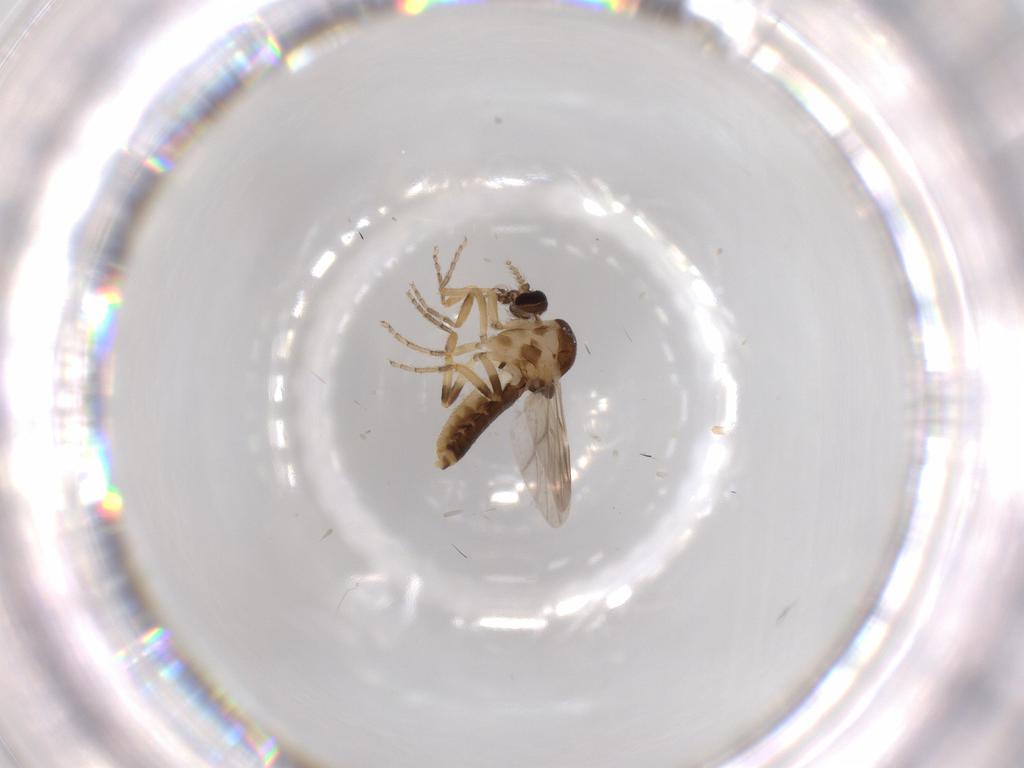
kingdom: Animalia
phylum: Arthropoda
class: Insecta
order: Diptera
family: Ceratopogonidae
